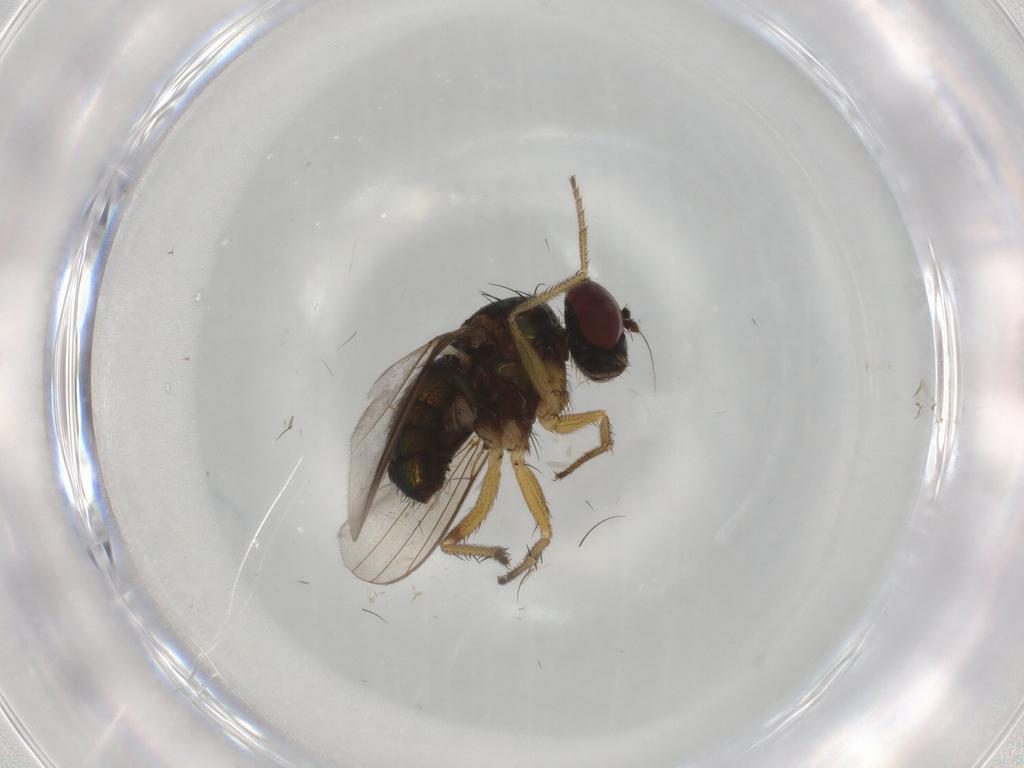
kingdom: Animalia
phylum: Arthropoda
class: Insecta
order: Diptera
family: Dolichopodidae
